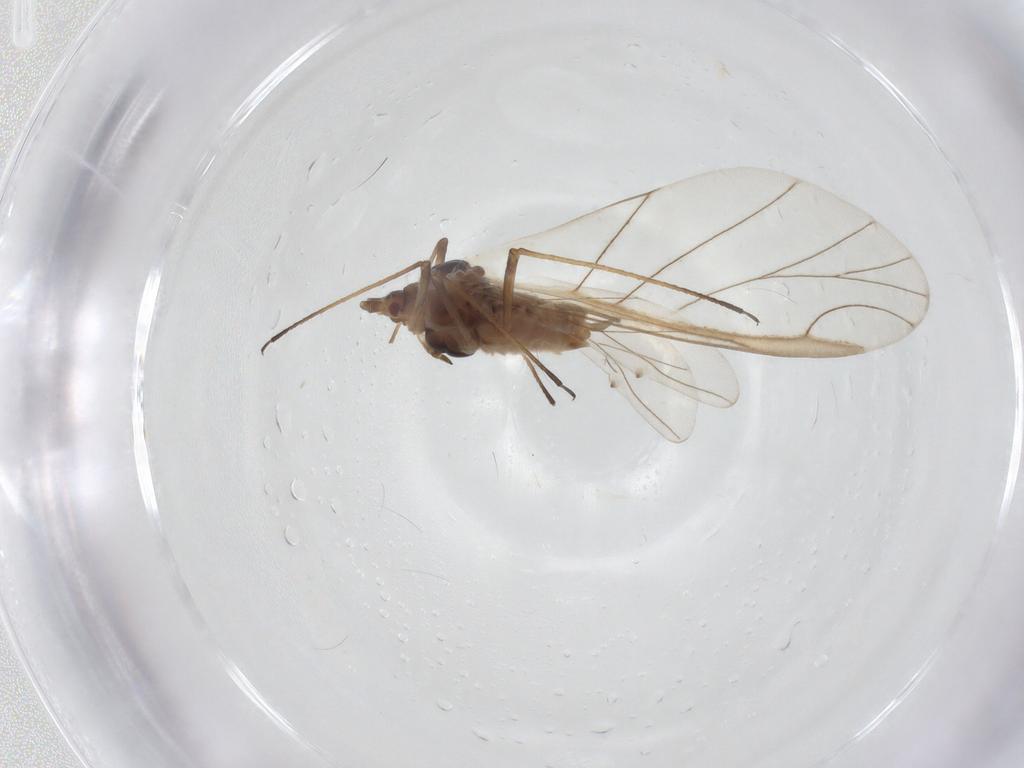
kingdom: Animalia
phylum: Arthropoda
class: Insecta
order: Hemiptera
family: Aphididae
